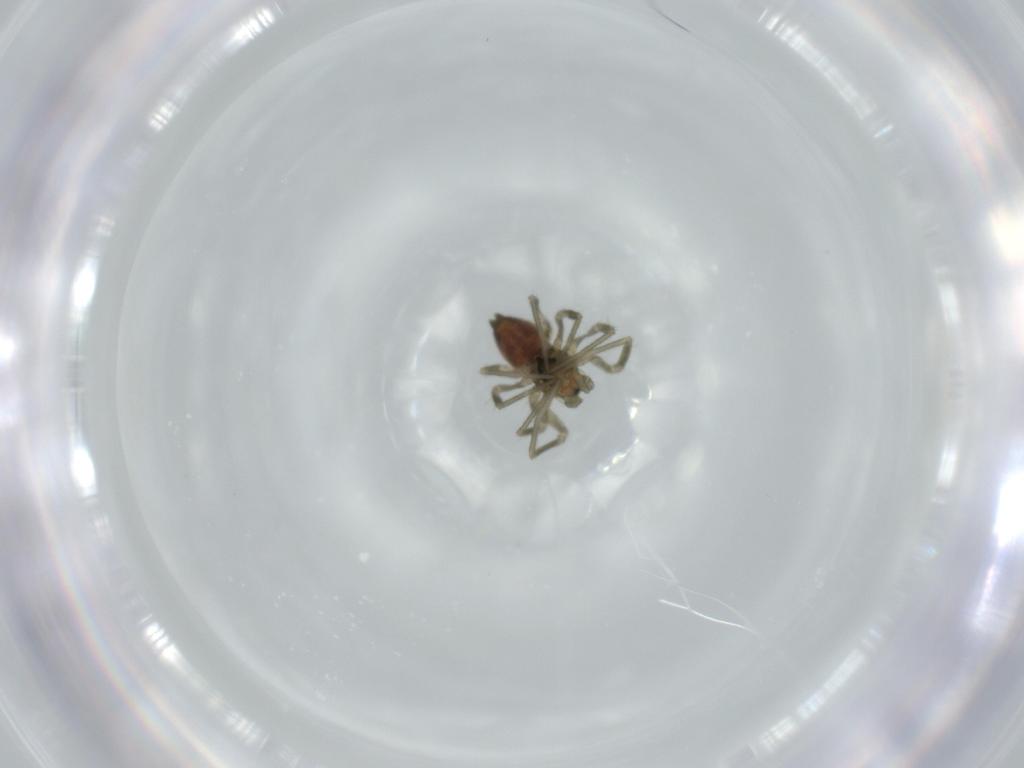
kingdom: Animalia
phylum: Arthropoda
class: Arachnida
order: Araneae
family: Linyphiidae
